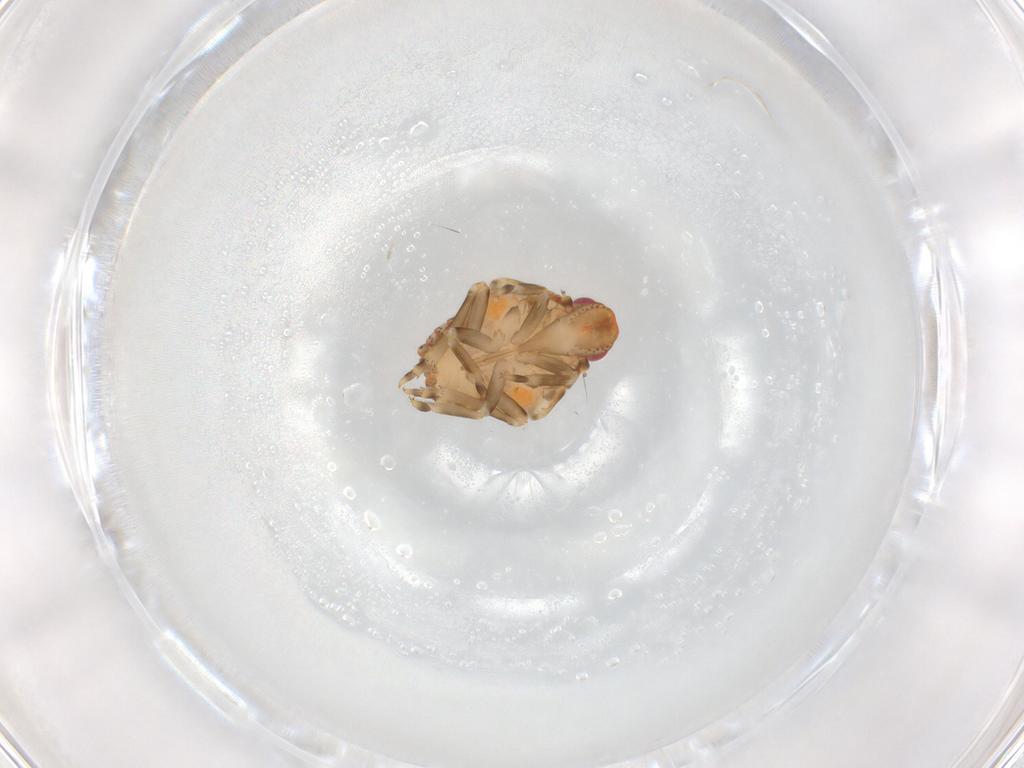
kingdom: Animalia
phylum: Arthropoda
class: Insecta
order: Hemiptera
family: Flatidae
